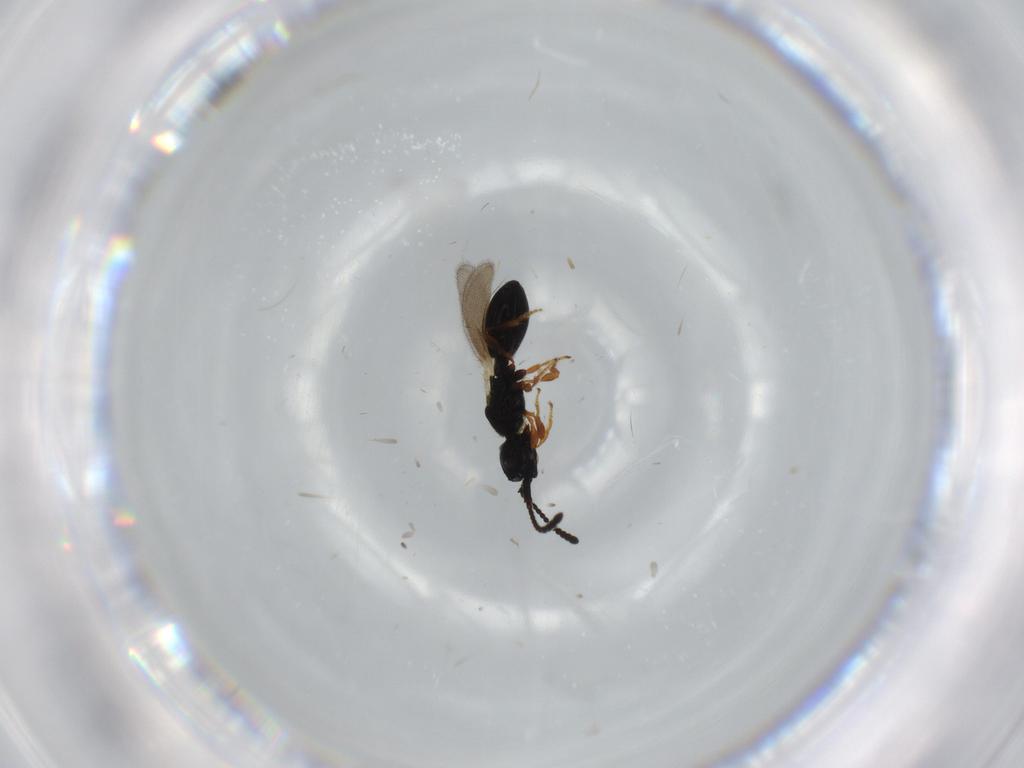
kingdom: Animalia
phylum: Arthropoda
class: Insecta
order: Hymenoptera
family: Diapriidae
